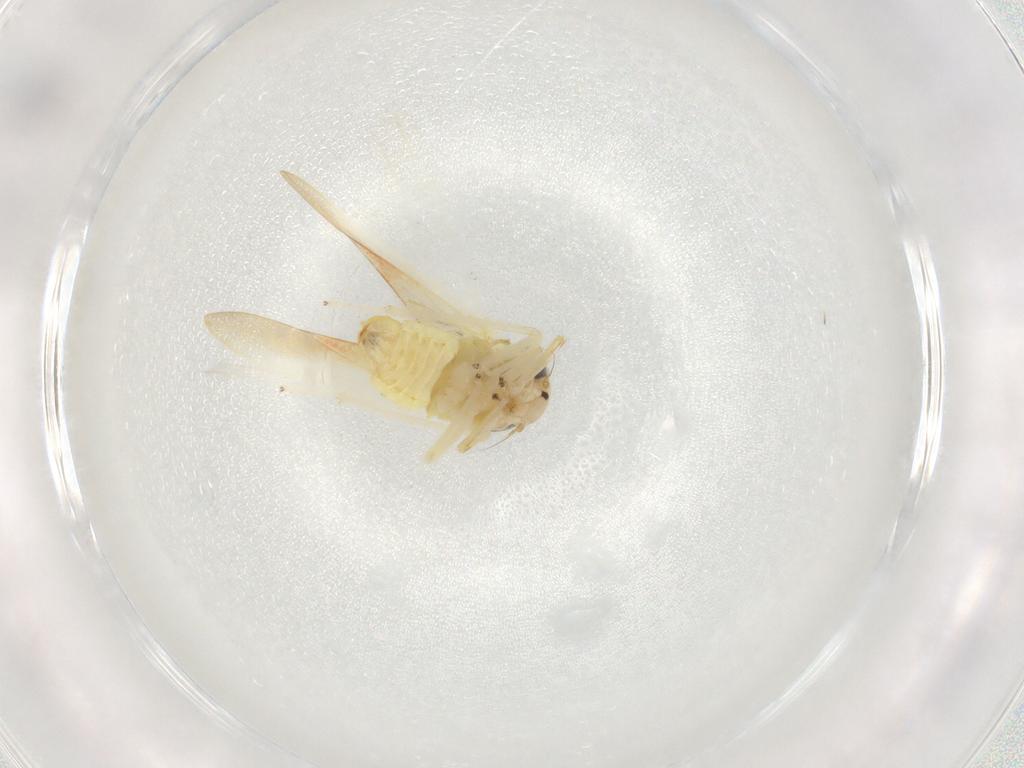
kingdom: Animalia
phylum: Arthropoda
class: Insecta
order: Hemiptera
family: Cicadellidae
